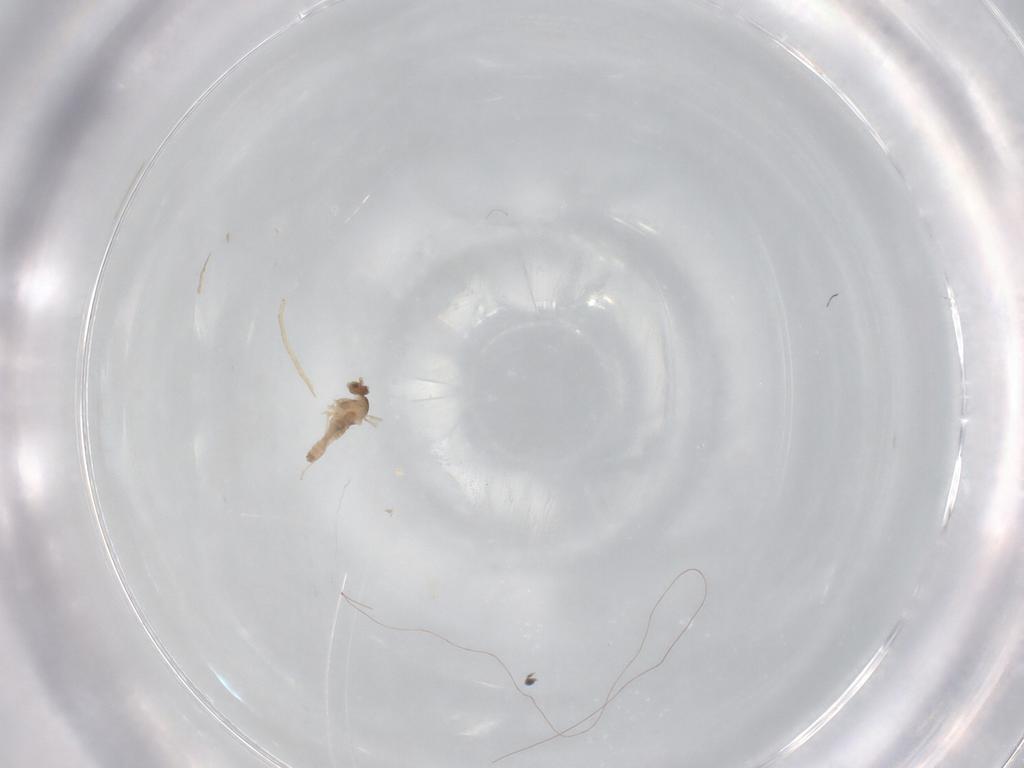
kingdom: Animalia
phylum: Arthropoda
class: Insecta
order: Diptera
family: Cecidomyiidae
